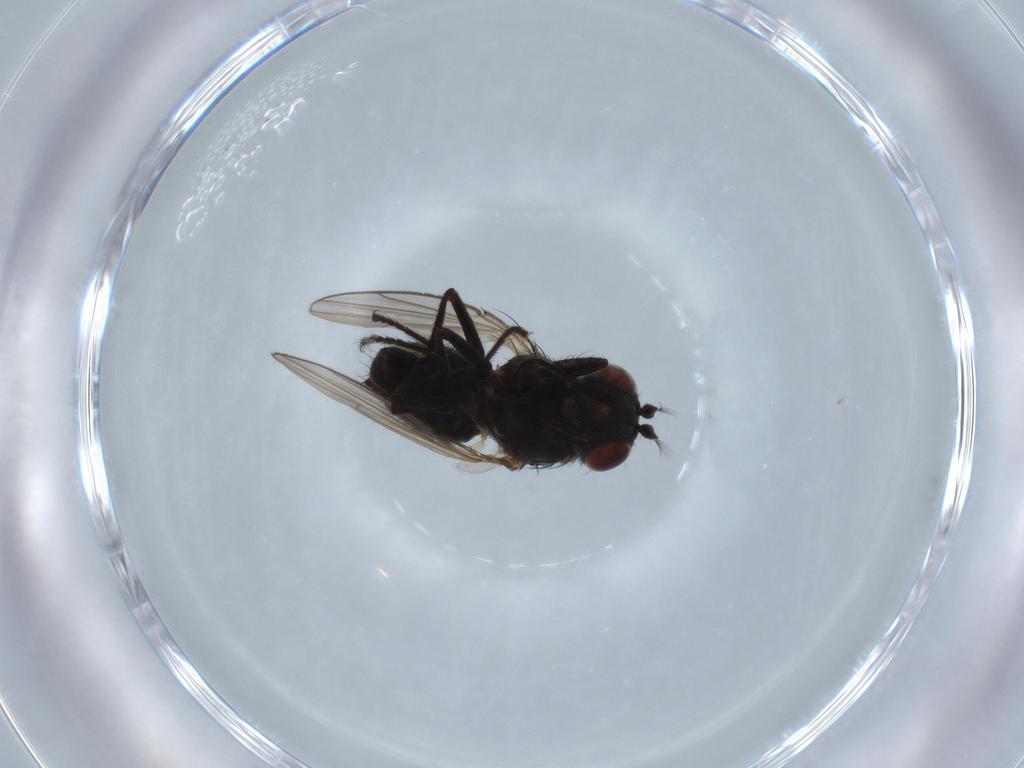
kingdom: Animalia
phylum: Arthropoda
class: Insecta
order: Diptera
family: Ephydridae
